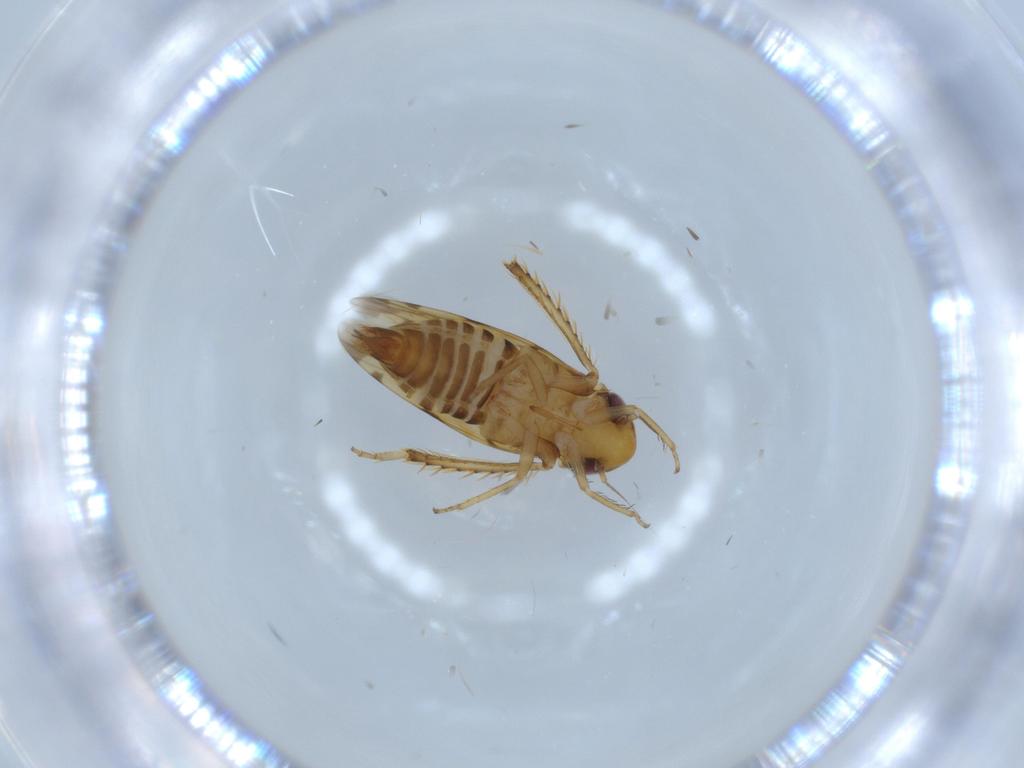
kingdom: Animalia
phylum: Arthropoda
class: Insecta
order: Hemiptera
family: Cicadellidae
